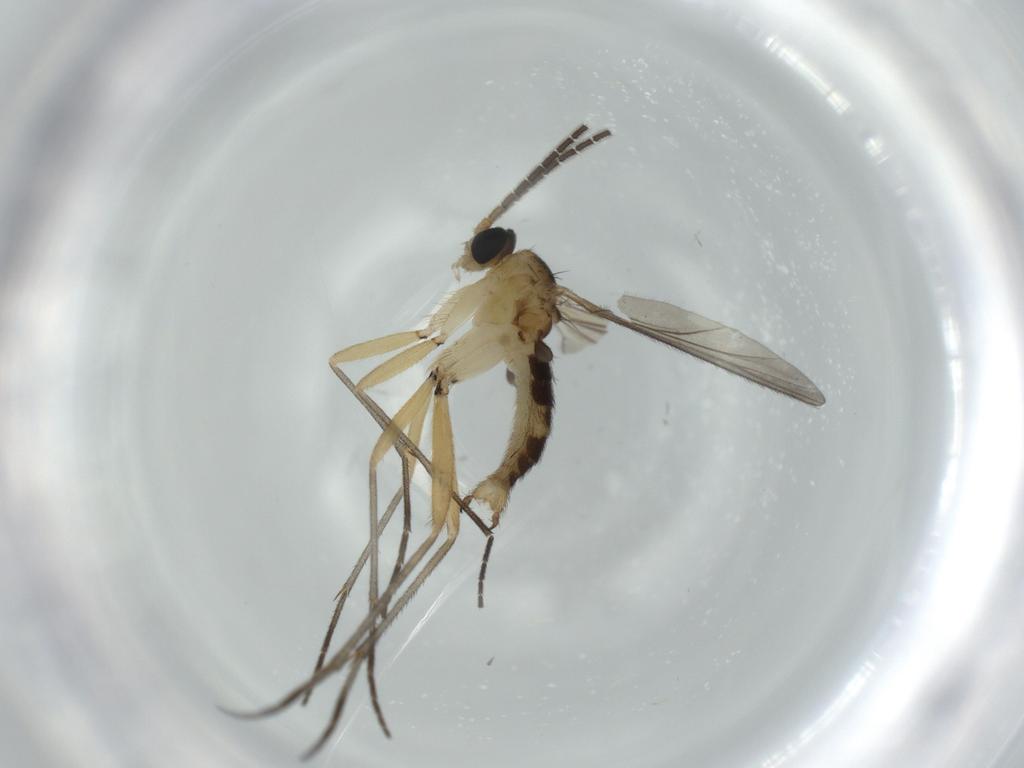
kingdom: Animalia
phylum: Arthropoda
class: Insecta
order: Diptera
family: Sciaridae
